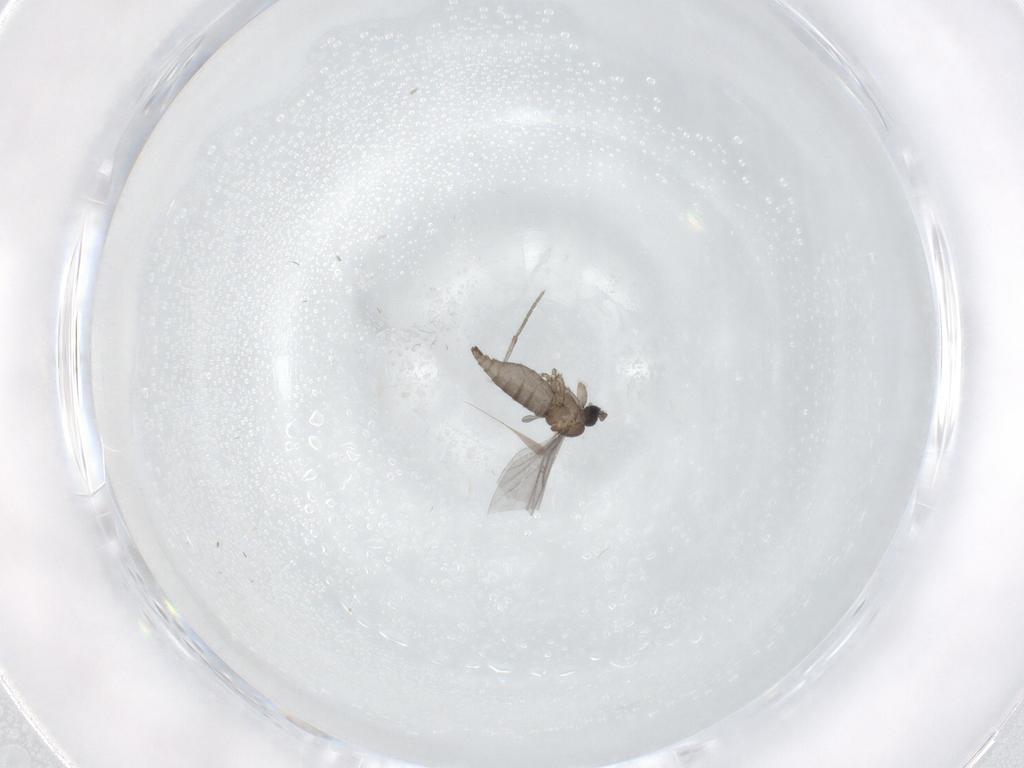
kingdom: Animalia
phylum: Arthropoda
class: Insecta
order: Diptera
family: Sciaridae
